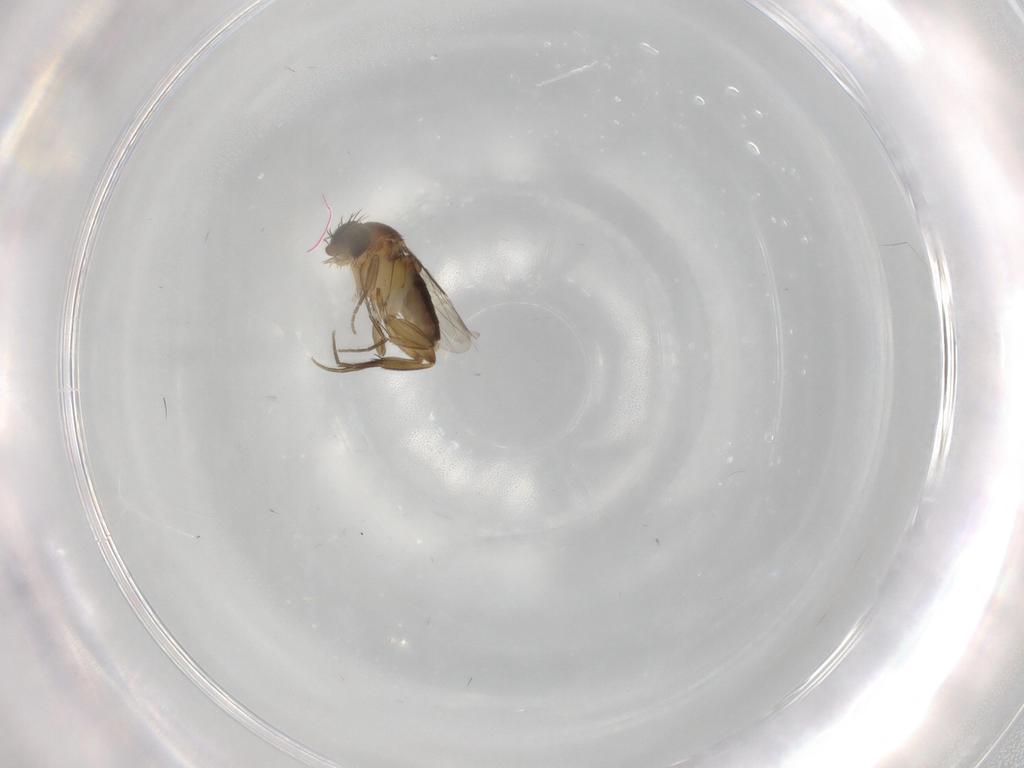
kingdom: Animalia
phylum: Arthropoda
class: Insecta
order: Diptera
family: Phoridae
